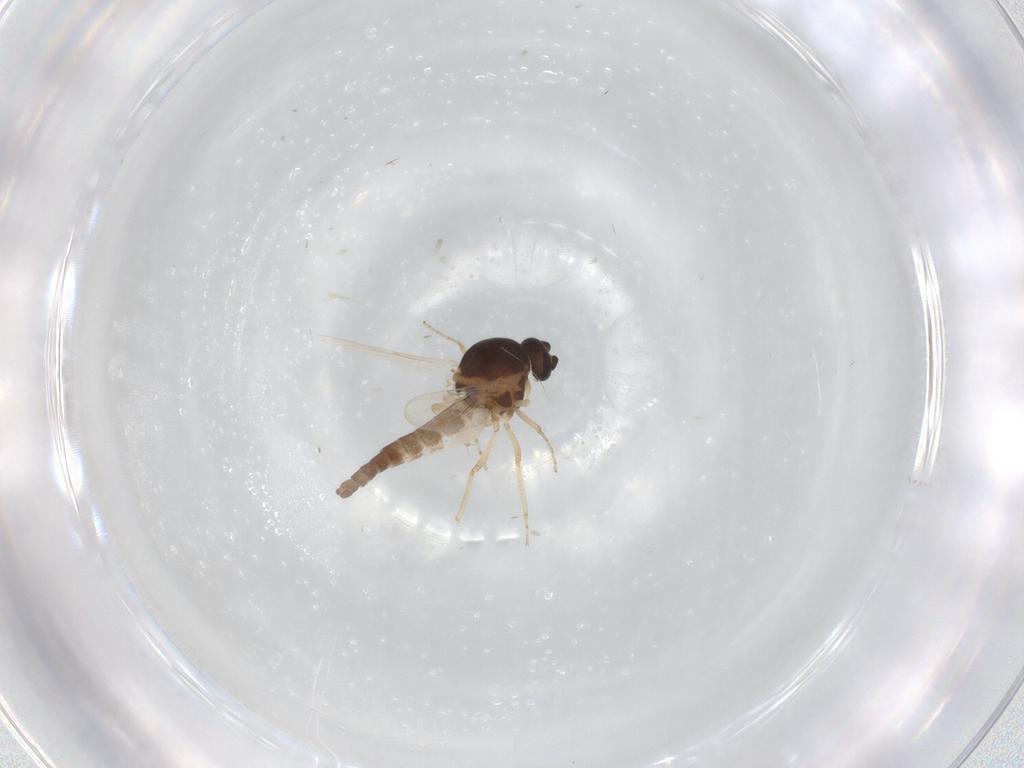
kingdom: Animalia
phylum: Arthropoda
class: Insecta
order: Diptera
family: Ceratopogonidae
